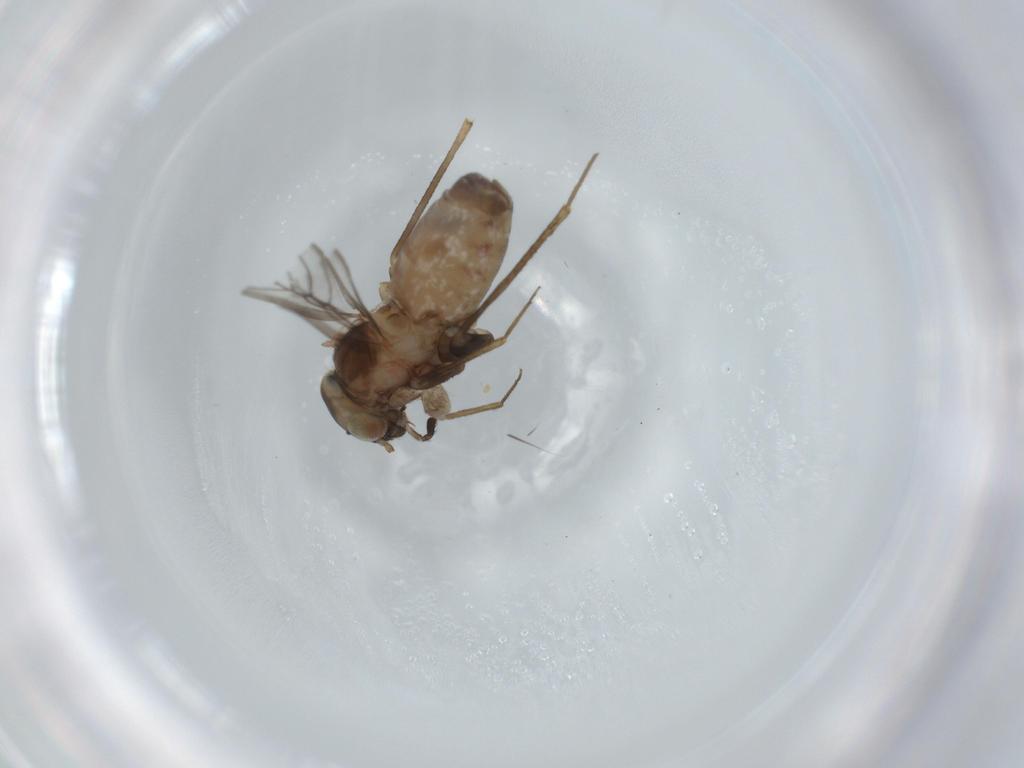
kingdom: Animalia
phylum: Arthropoda
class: Insecta
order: Psocodea
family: Lepidopsocidae
